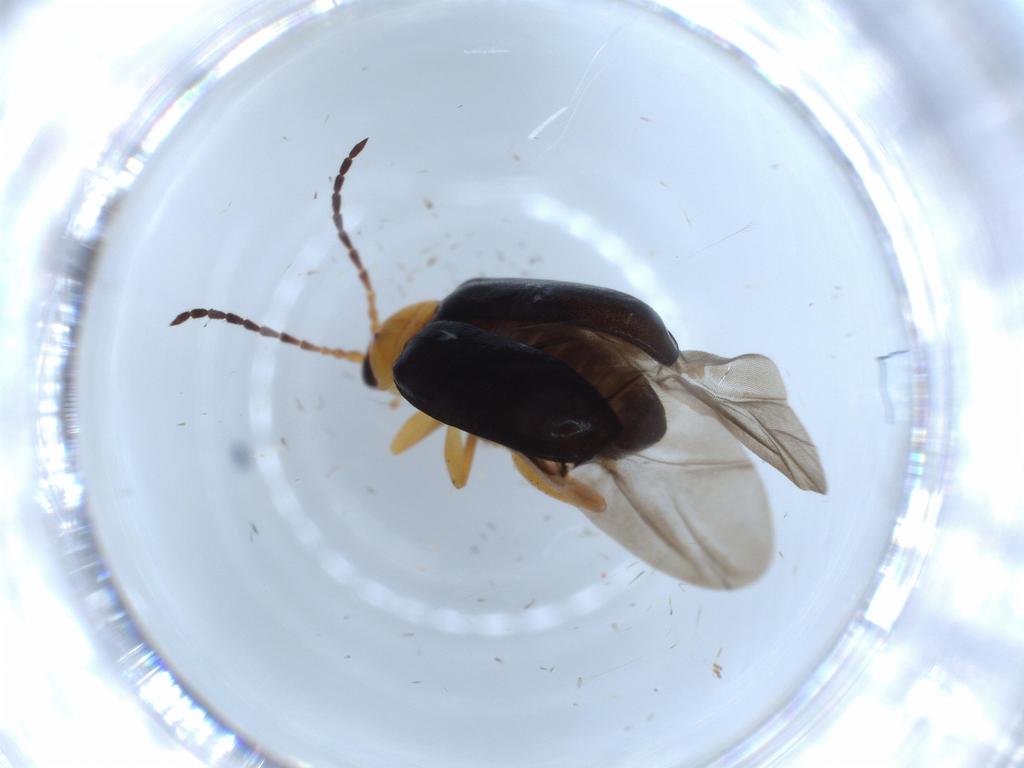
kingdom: Animalia
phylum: Arthropoda
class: Insecta
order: Coleoptera
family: Chrysomelidae
